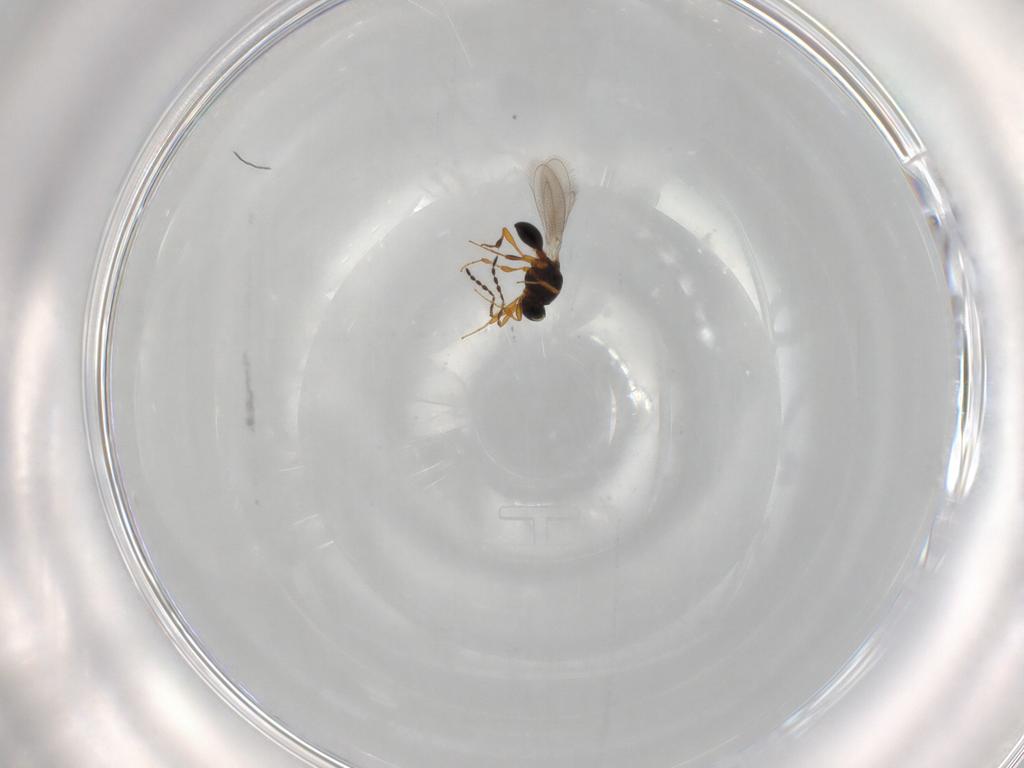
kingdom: Animalia
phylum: Arthropoda
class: Insecta
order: Hymenoptera
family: Platygastridae
